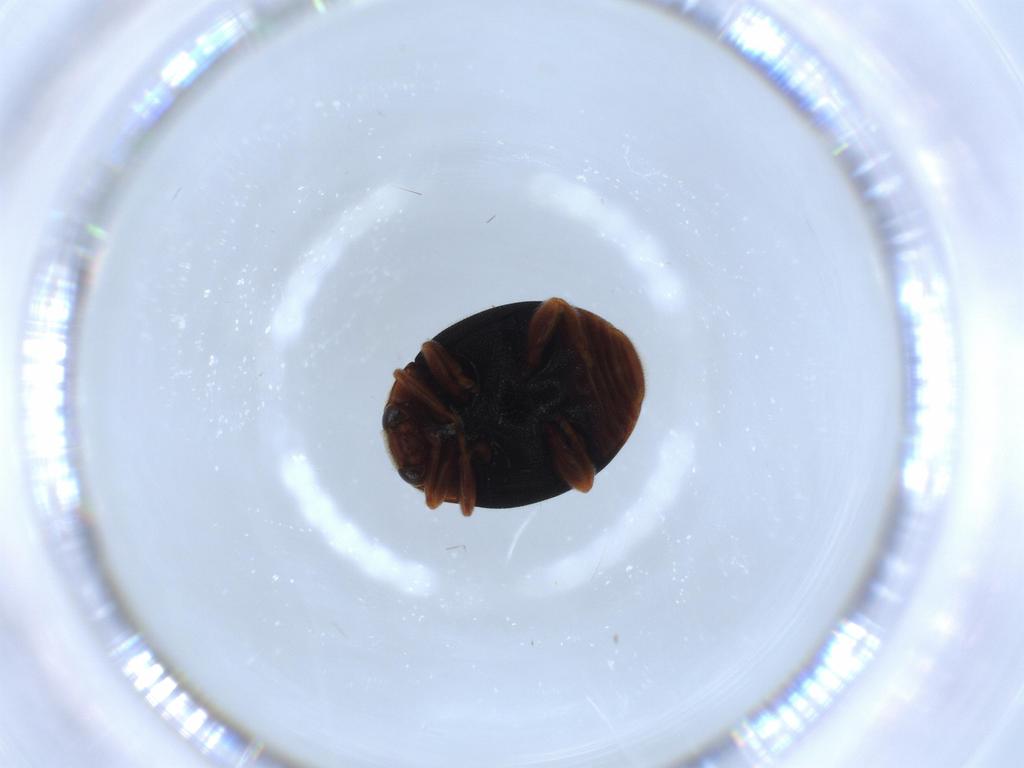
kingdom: Animalia
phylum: Arthropoda
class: Insecta
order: Coleoptera
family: Coccinellidae
